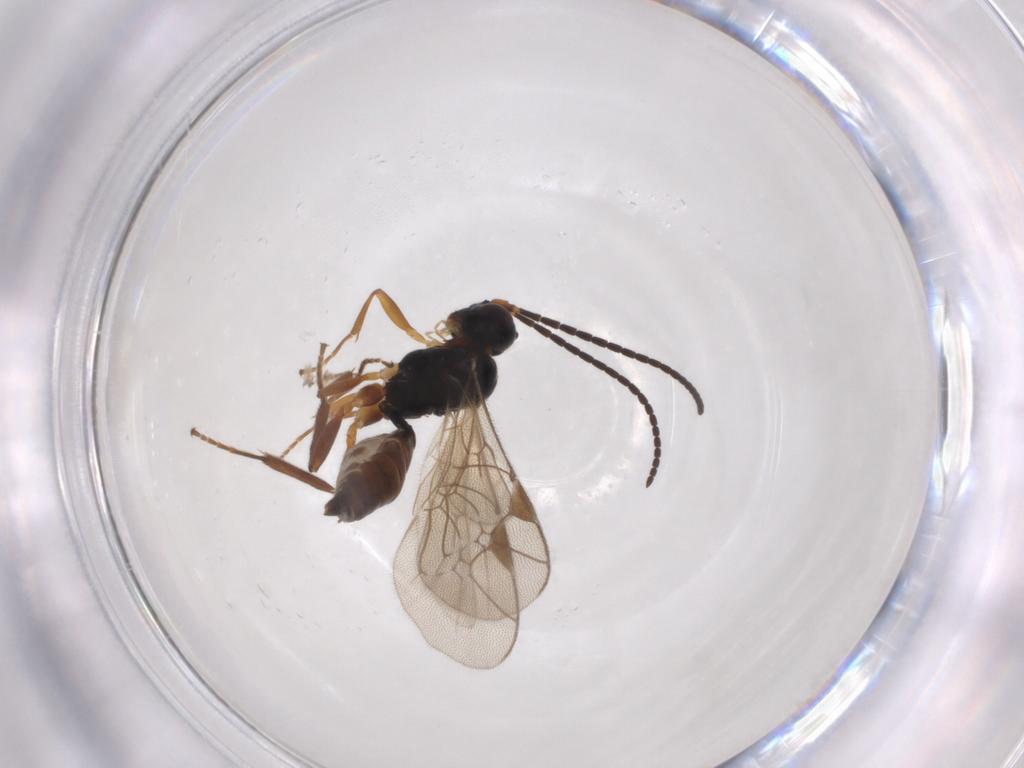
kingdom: Animalia
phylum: Arthropoda
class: Insecta
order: Hymenoptera
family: Ichneumonidae
